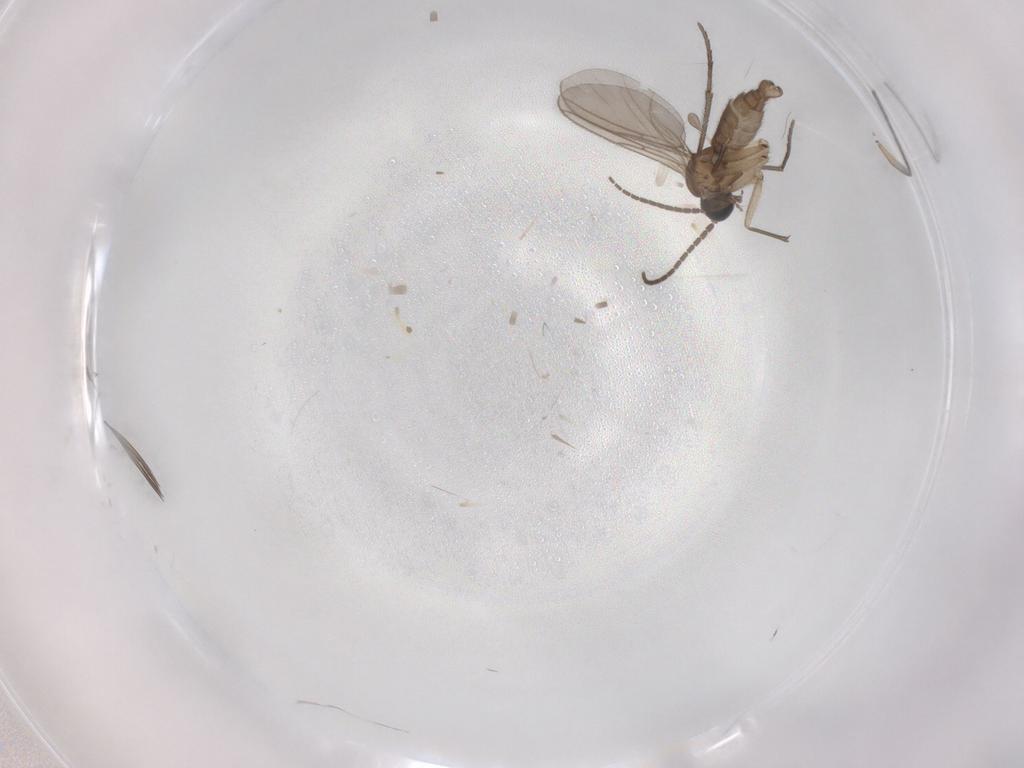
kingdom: Animalia
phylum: Arthropoda
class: Insecta
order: Diptera
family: Sciaridae
